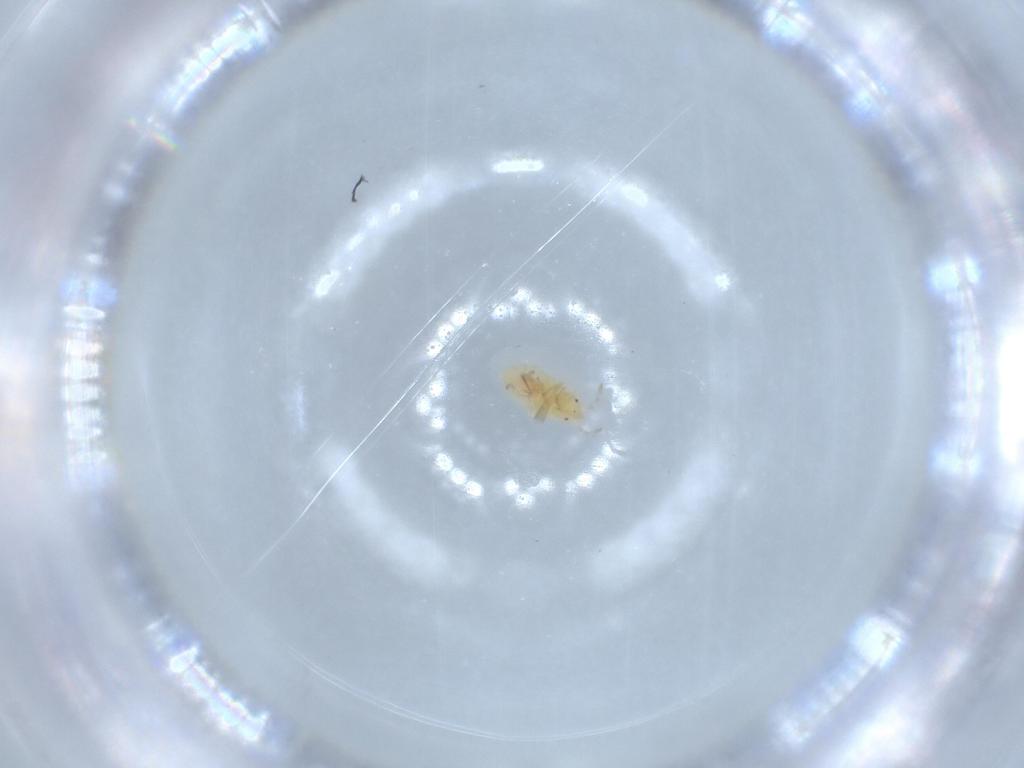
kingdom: Animalia
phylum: Arthropoda
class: Insecta
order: Hemiptera
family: Anthocoridae
